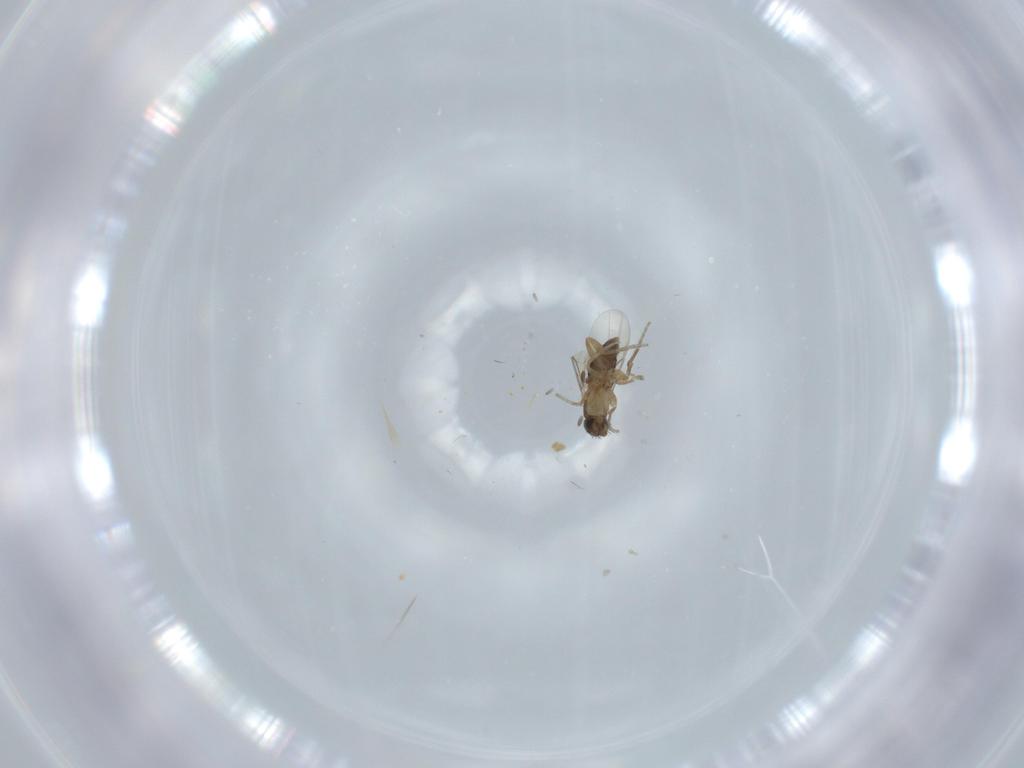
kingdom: Animalia
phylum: Arthropoda
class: Insecta
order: Diptera
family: Phoridae
